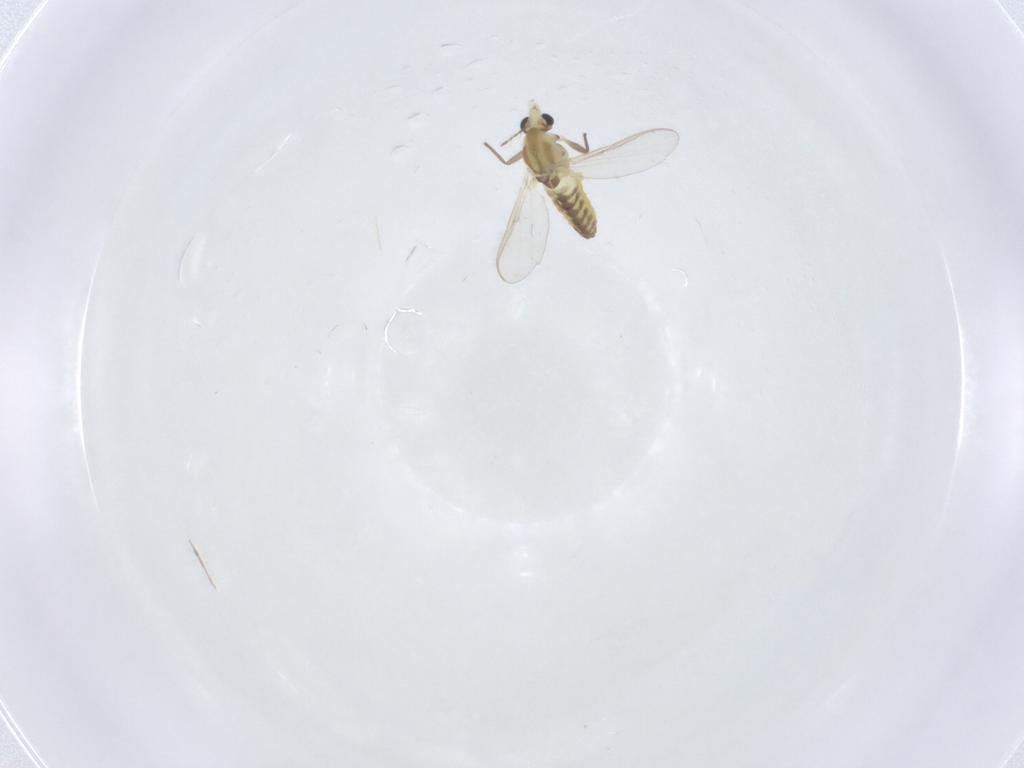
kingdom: Animalia
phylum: Arthropoda
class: Insecta
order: Diptera
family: Chironomidae
